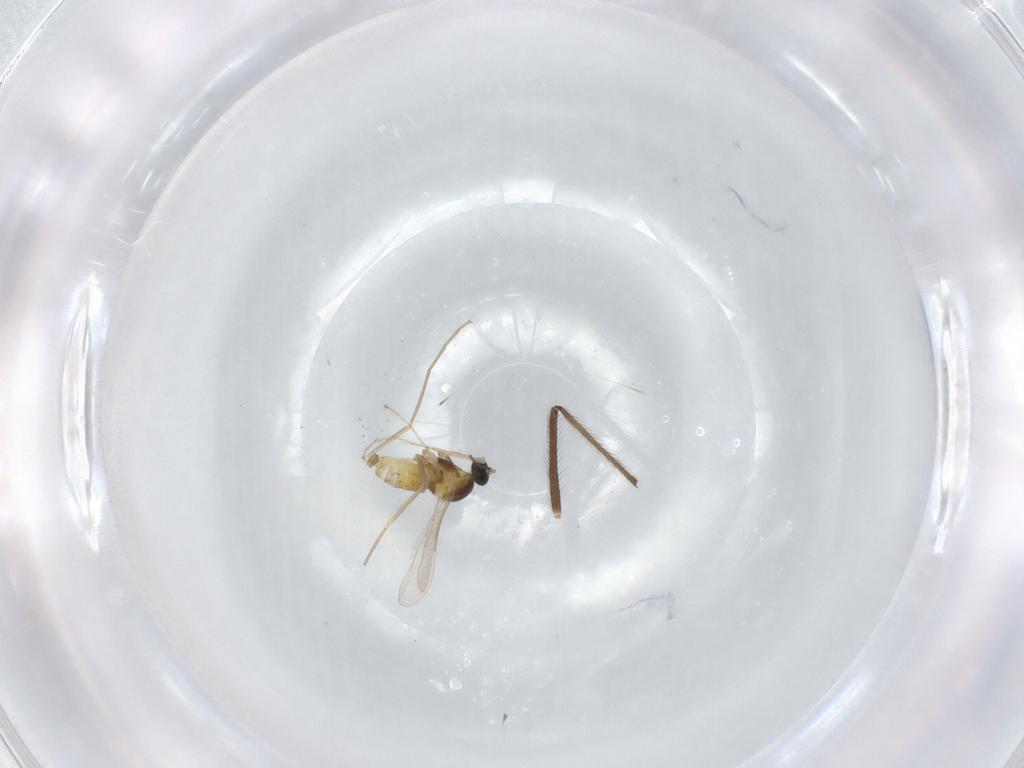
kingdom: Animalia
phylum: Arthropoda
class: Insecta
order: Diptera
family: Cecidomyiidae
